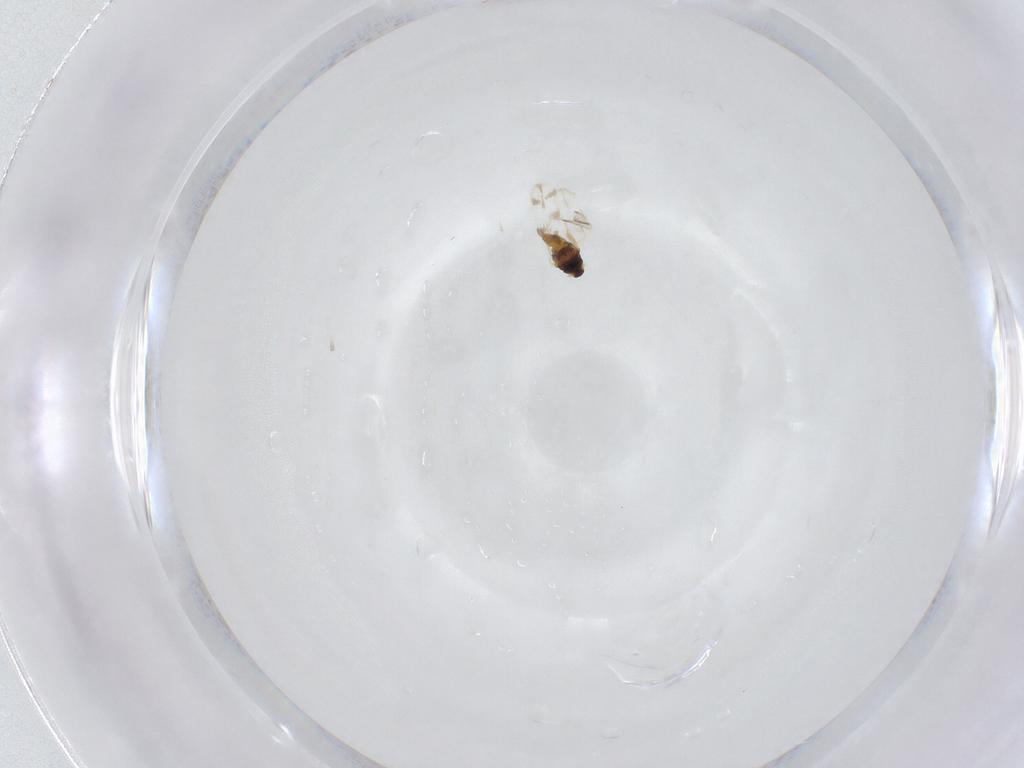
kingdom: Animalia
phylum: Arthropoda
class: Insecta
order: Hemiptera
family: Aleyrodidae
